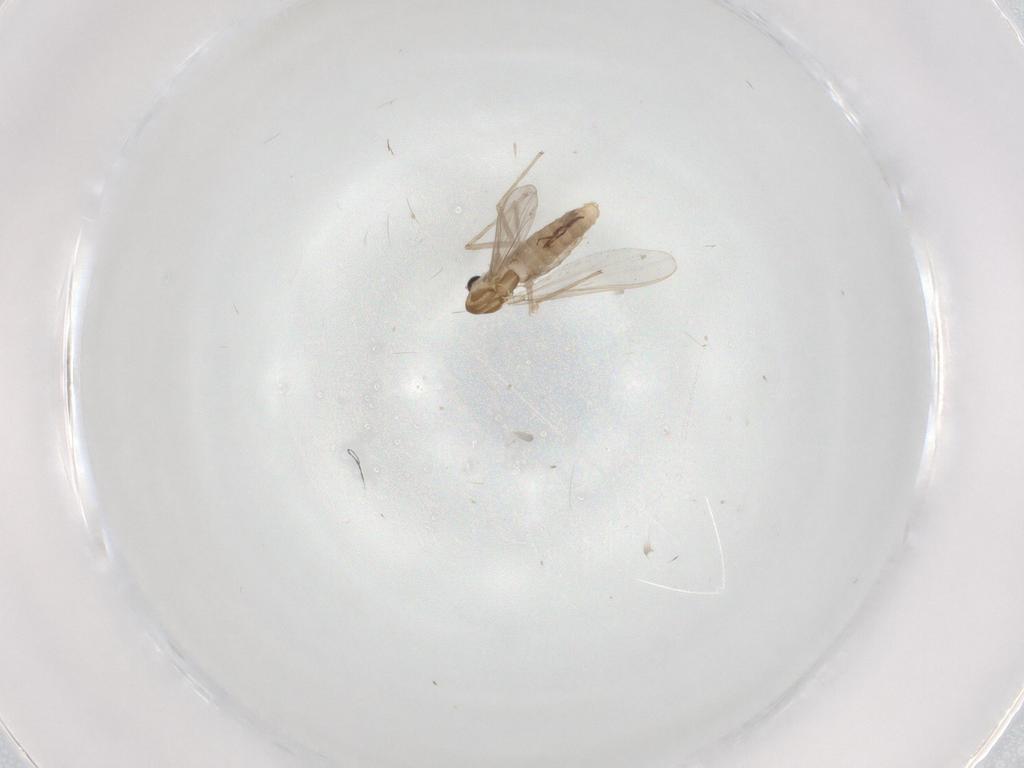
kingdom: Animalia
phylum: Arthropoda
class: Insecta
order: Diptera
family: Chironomidae
